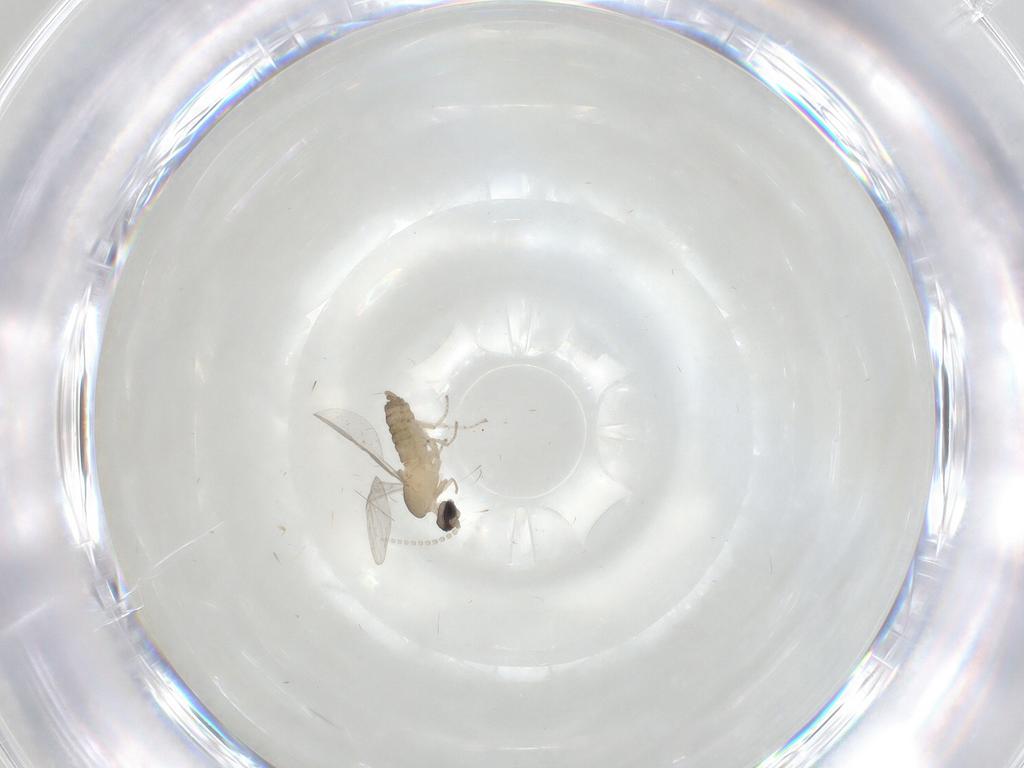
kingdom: Animalia
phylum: Arthropoda
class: Insecta
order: Diptera
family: Cecidomyiidae
